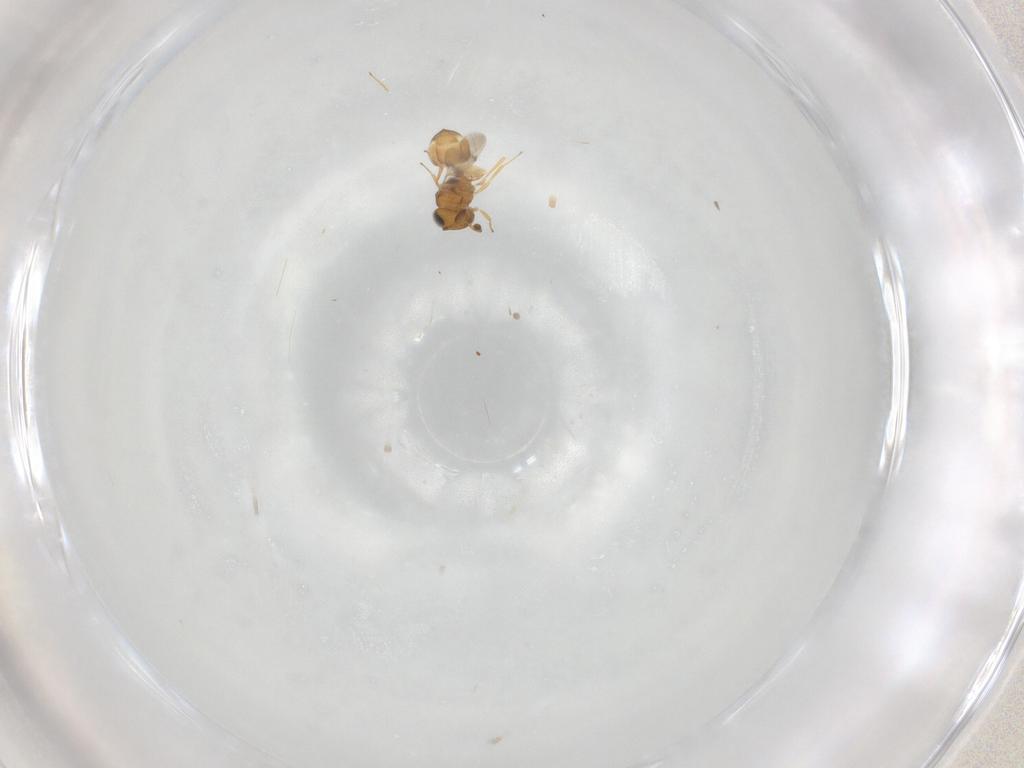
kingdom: Animalia
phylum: Arthropoda
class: Insecta
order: Hymenoptera
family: Scelionidae
